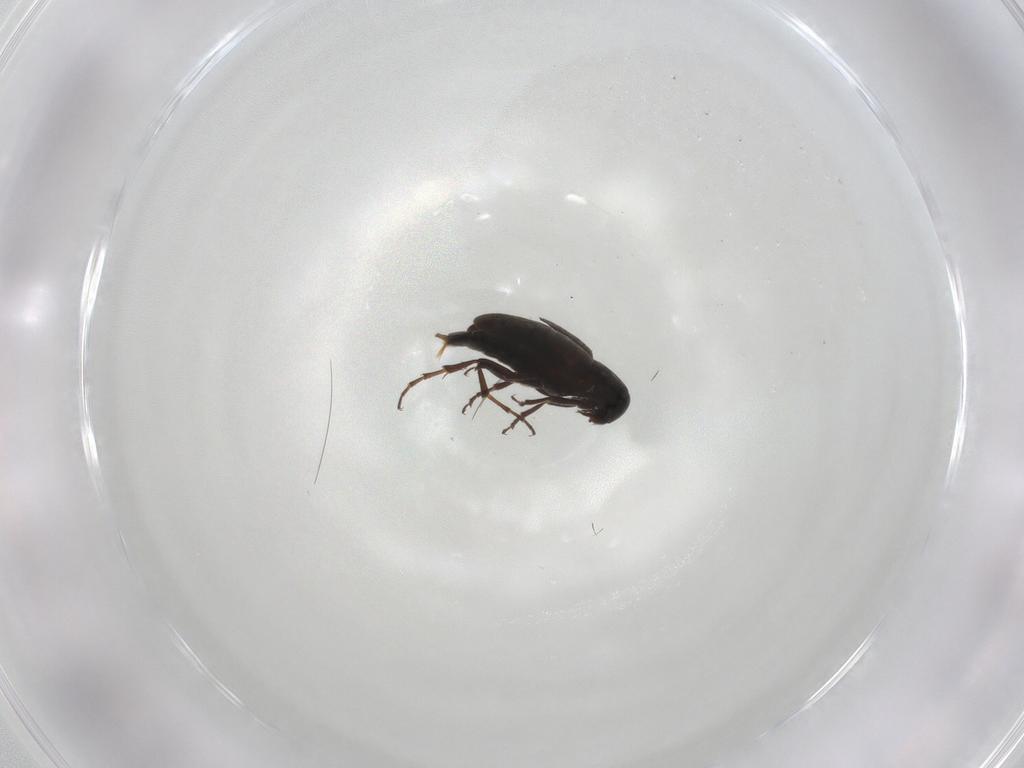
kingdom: Animalia
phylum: Arthropoda
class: Insecta
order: Coleoptera
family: Scraptiidae
